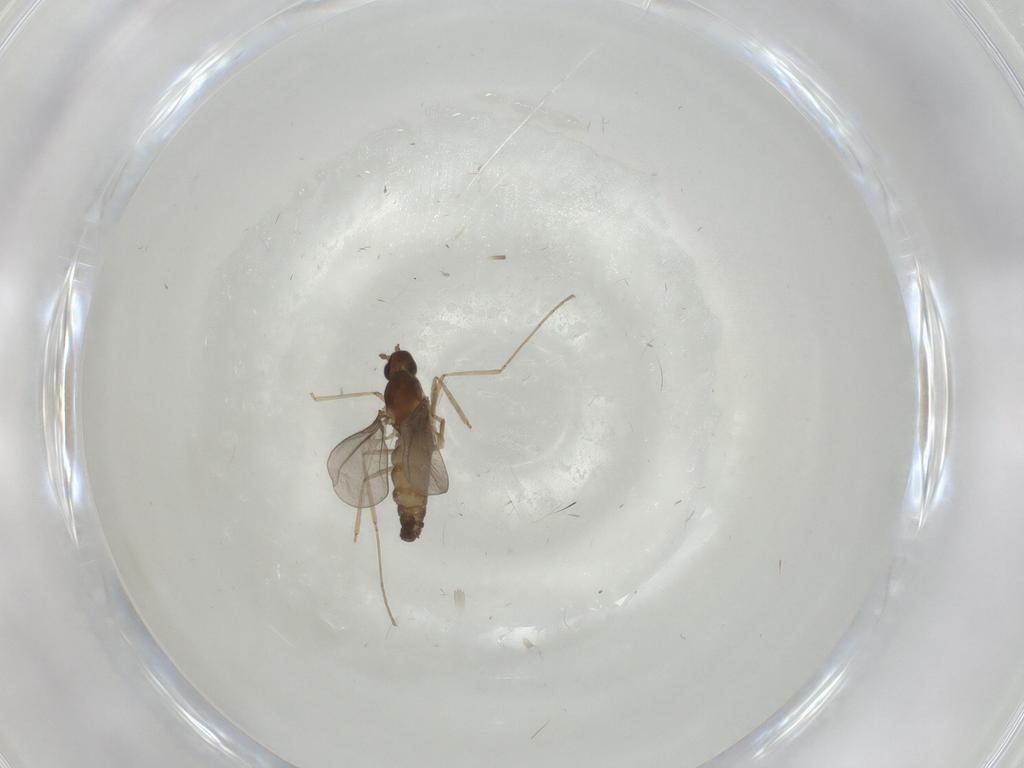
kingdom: Animalia
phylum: Arthropoda
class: Insecta
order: Diptera
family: Cecidomyiidae
